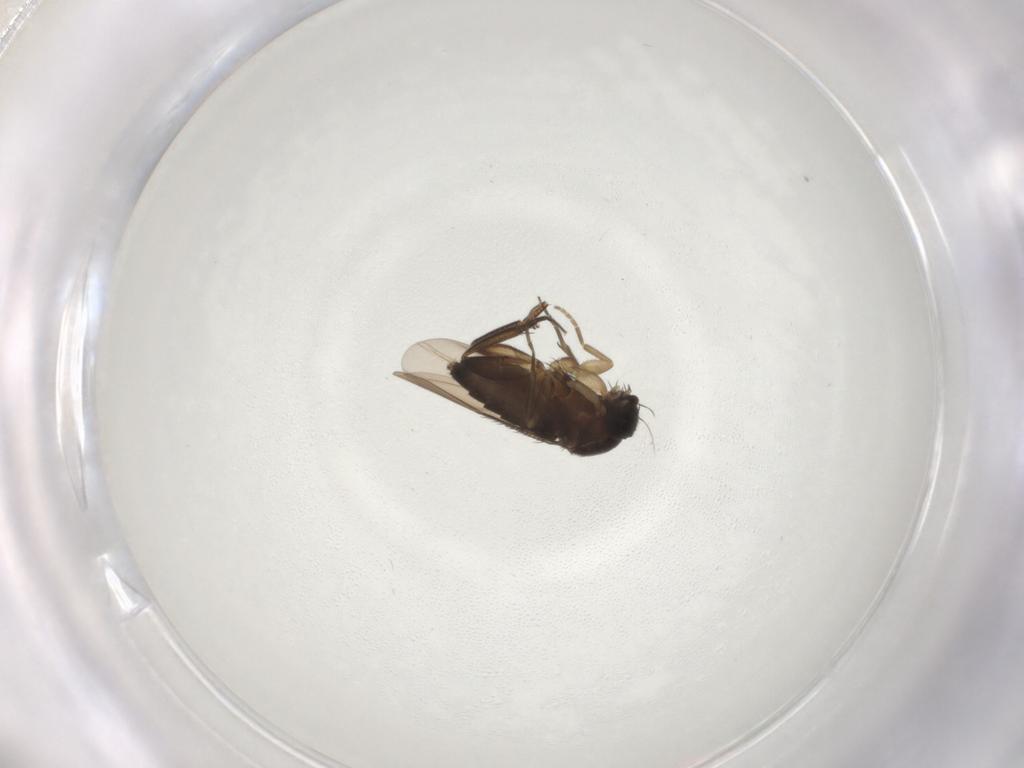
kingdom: Animalia
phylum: Arthropoda
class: Insecta
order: Diptera
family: Phoridae
